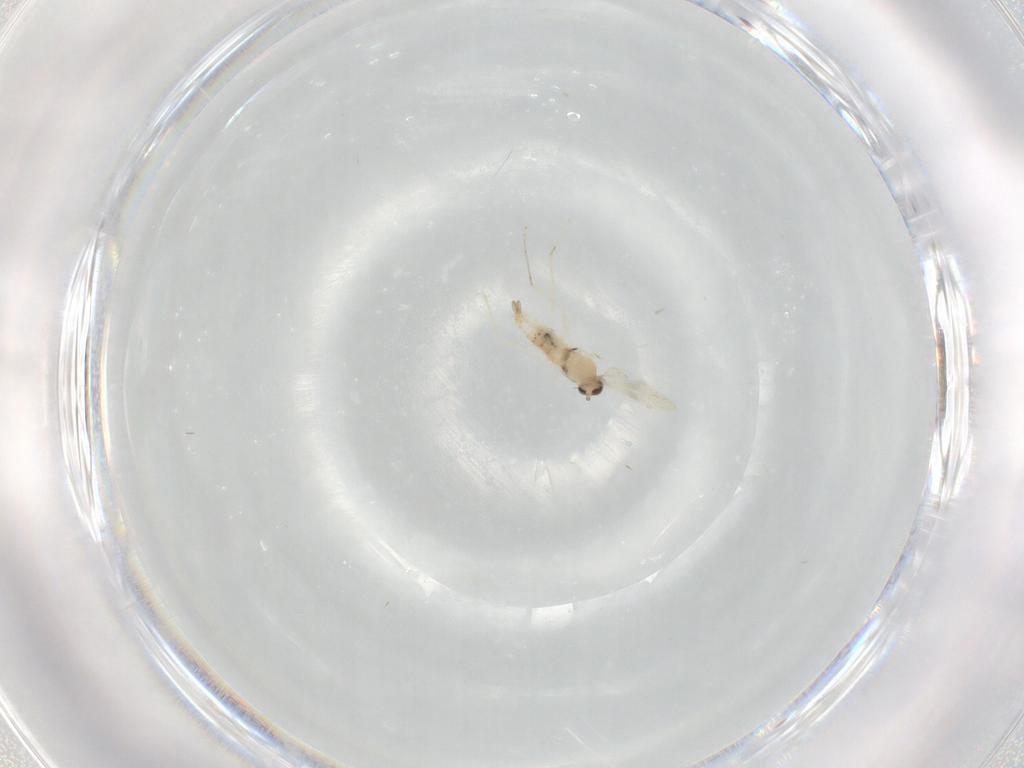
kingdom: Animalia
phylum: Arthropoda
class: Insecta
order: Diptera
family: Cecidomyiidae
